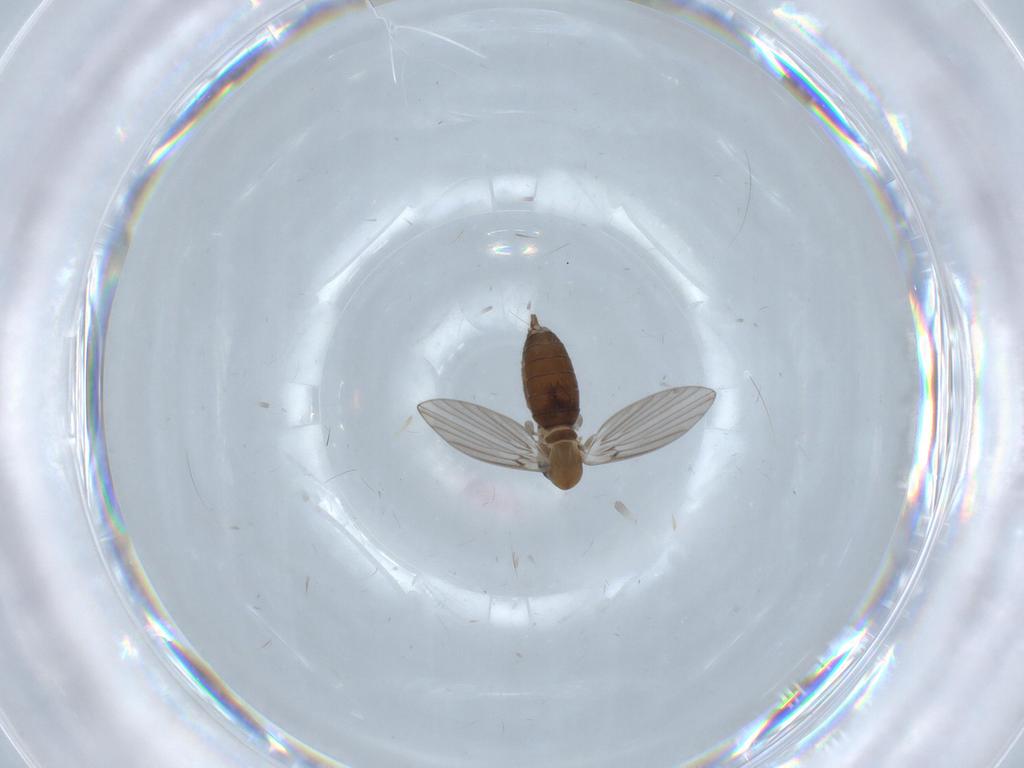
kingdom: Animalia
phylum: Arthropoda
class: Insecta
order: Diptera
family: Psychodidae
